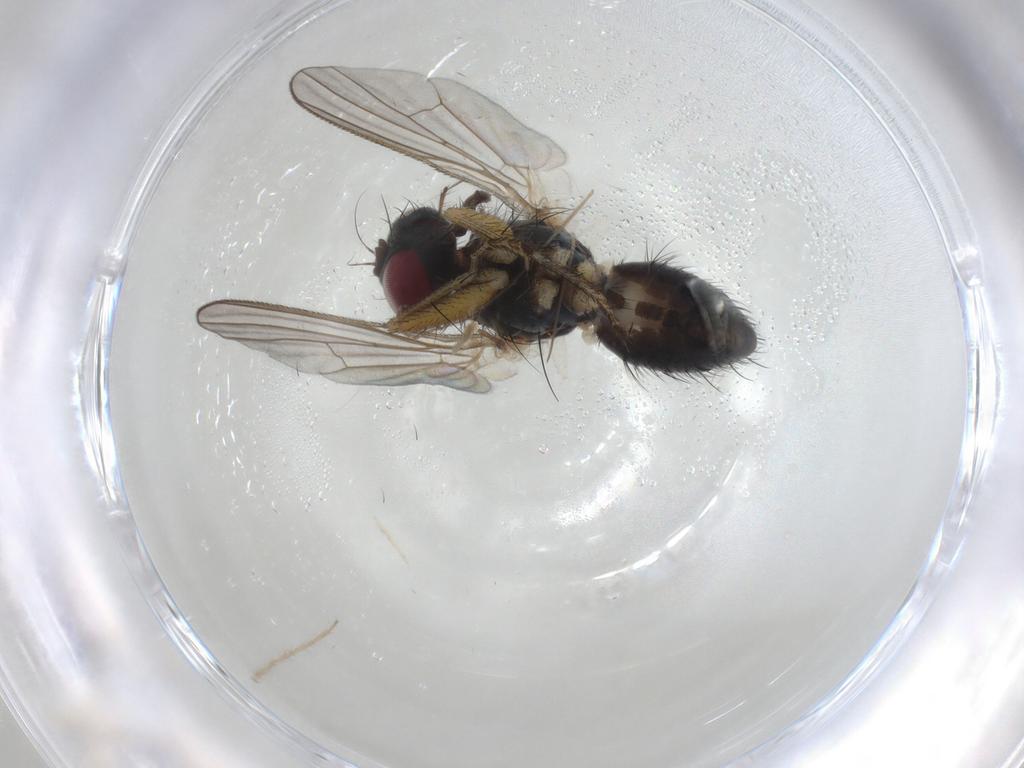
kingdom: Animalia
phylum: Arthropoda
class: Insecta
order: Diptera
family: Muscidae
